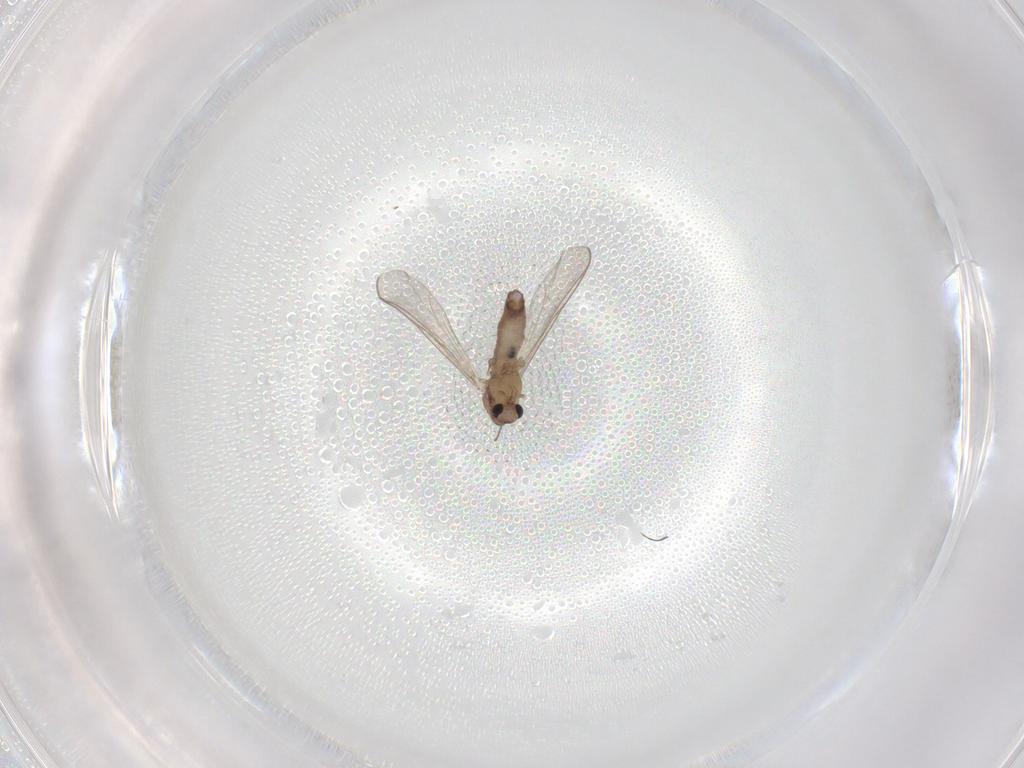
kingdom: Animalia
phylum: Arthropoda
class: Insecta
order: Diptera
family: Chironomidae
